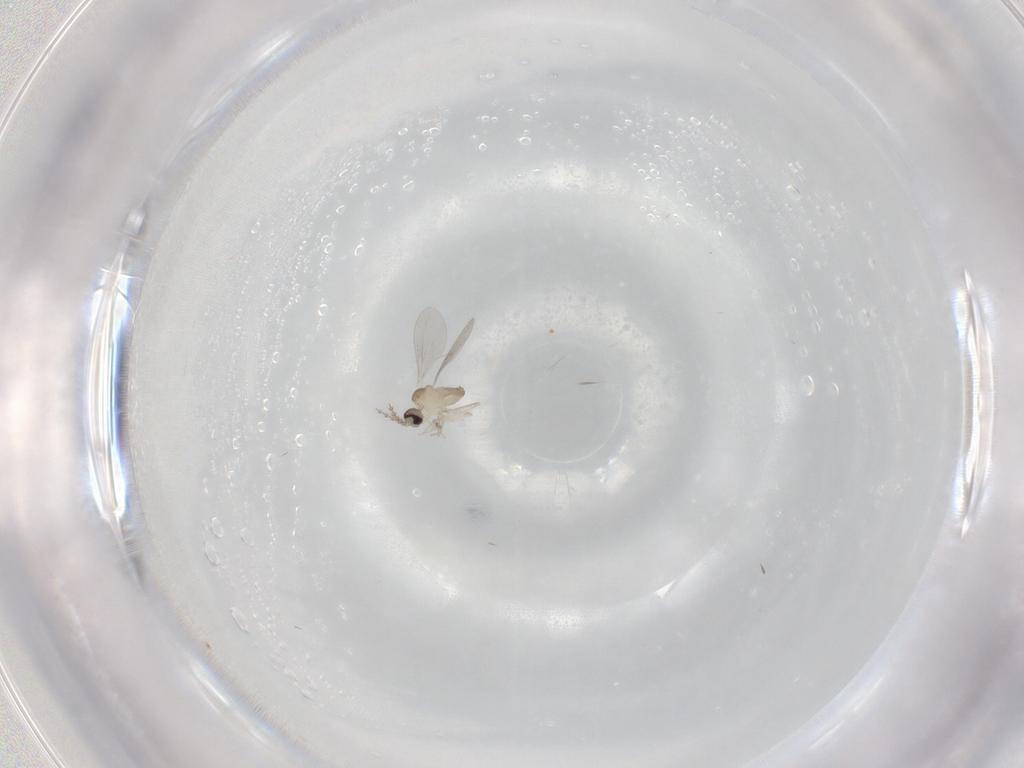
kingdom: Animalia
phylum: Arthropoda
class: Insecta
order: Diptera
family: Cecidomyiidae
